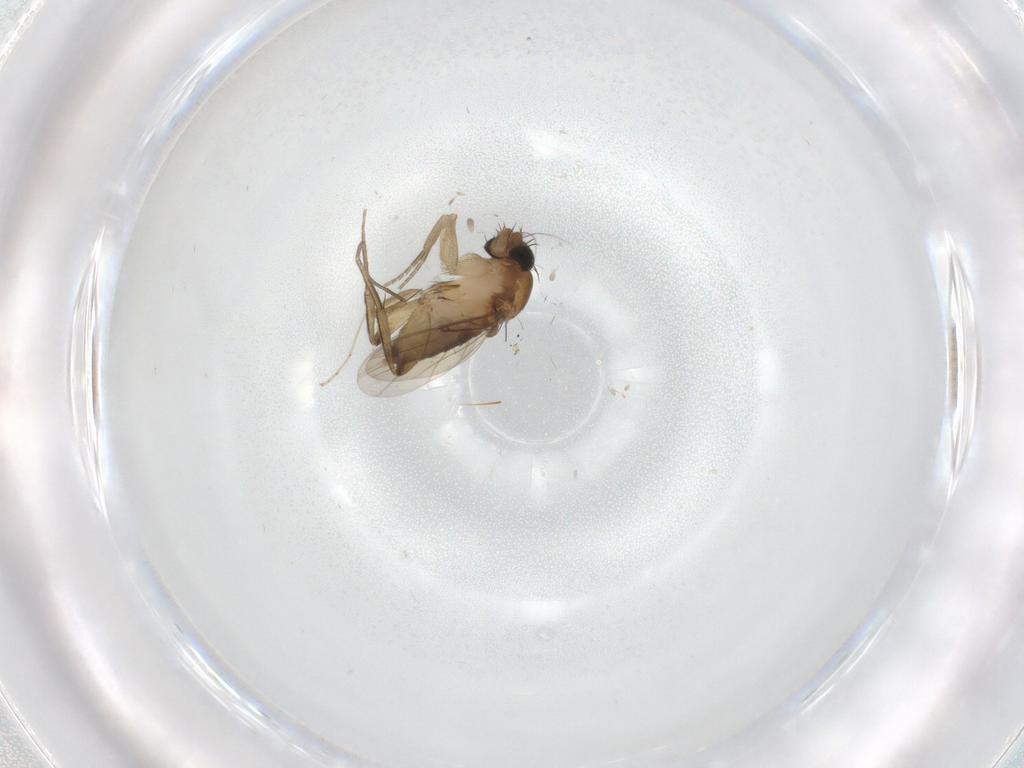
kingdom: Animalia
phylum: Arthropoda
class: Insecta
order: Diptera
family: Phoridae
